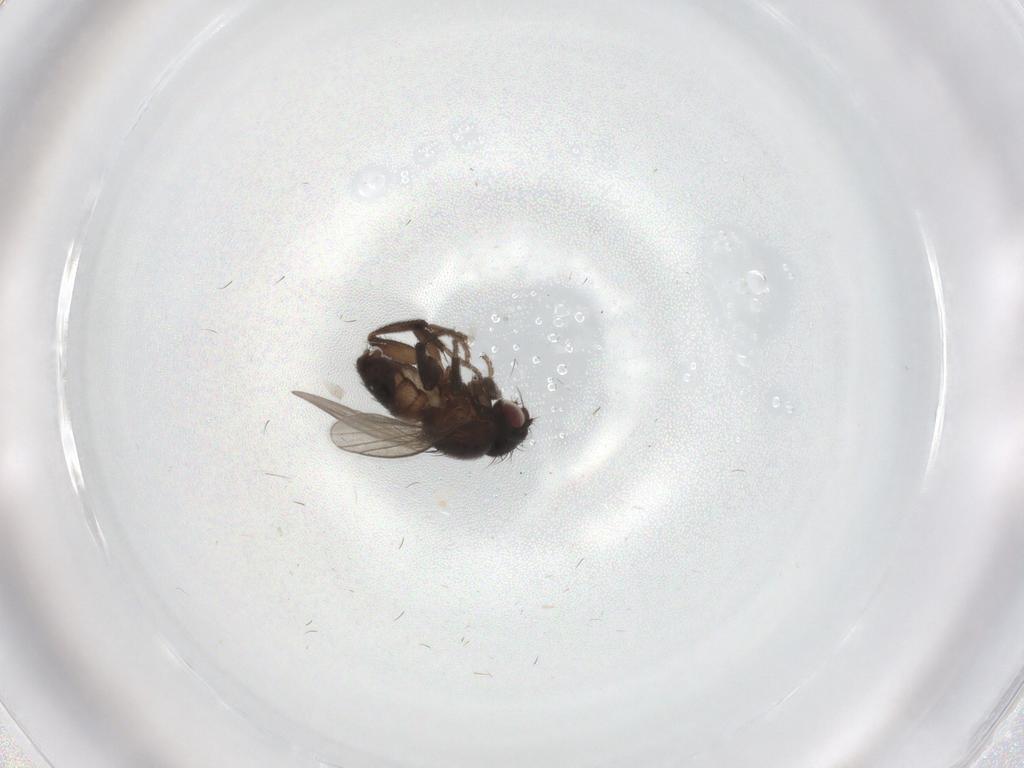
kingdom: Animalia
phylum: Arthropoda
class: Insecta
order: Diptera
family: Milichiidae
